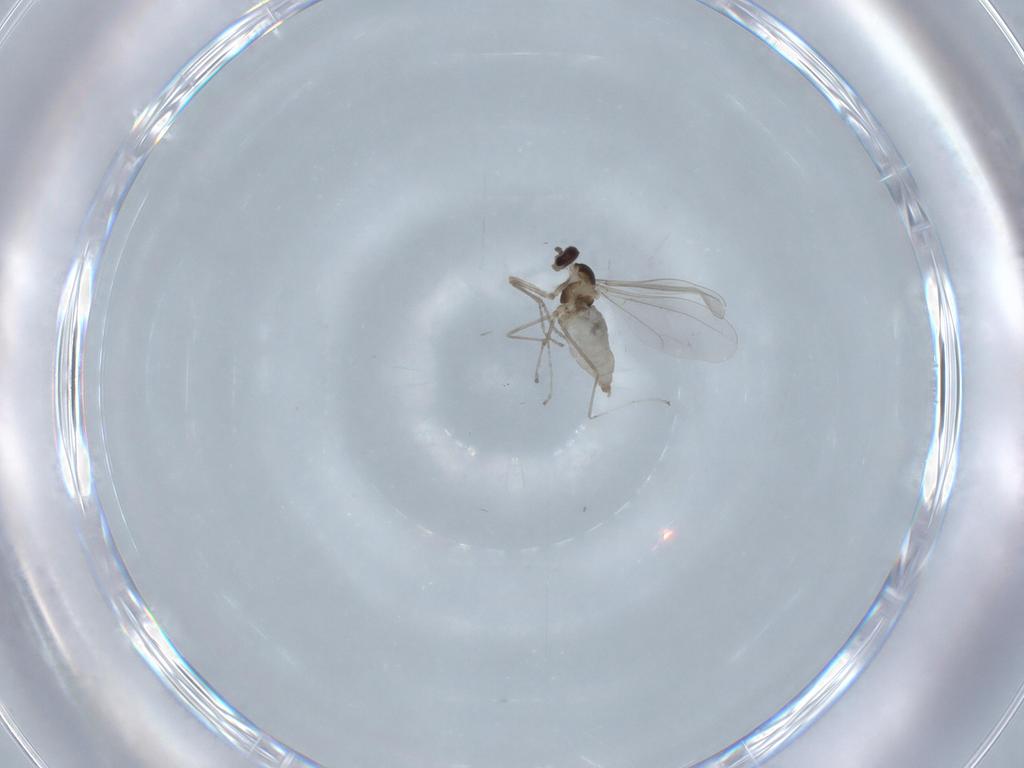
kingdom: Animalia
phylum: Arthropoda
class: Insecta
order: Diptera
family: Cecidomyiidae
